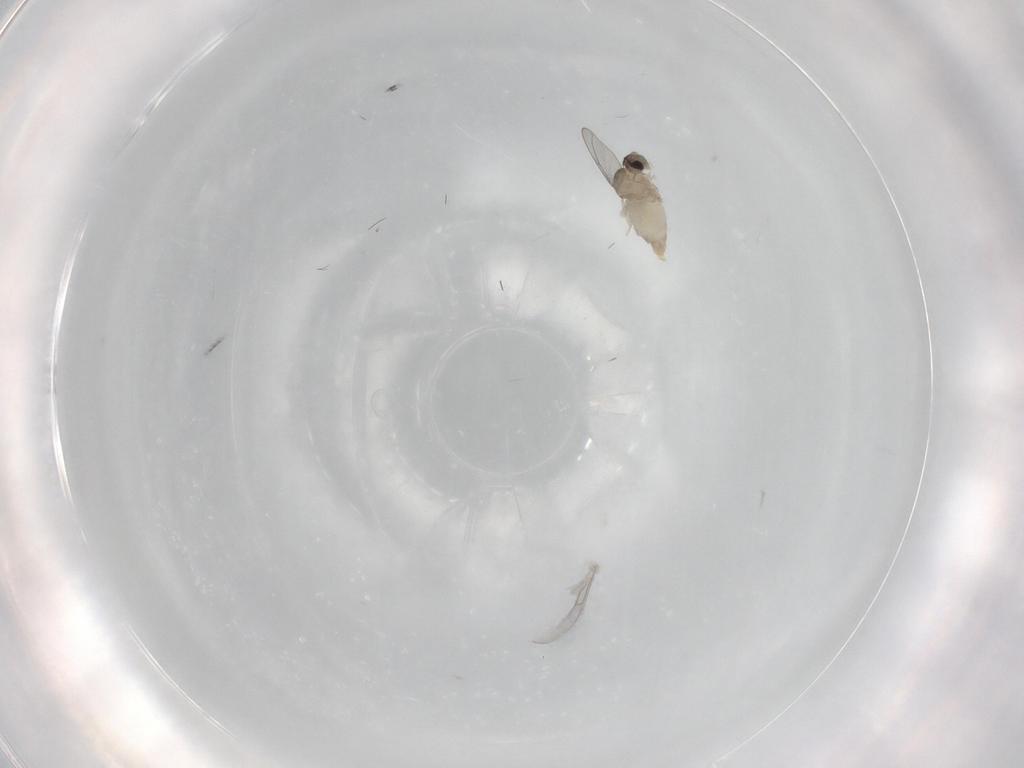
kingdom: Animalia
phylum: Arthropoda
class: Insecta
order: Diptera
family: Cecidomyiidae
